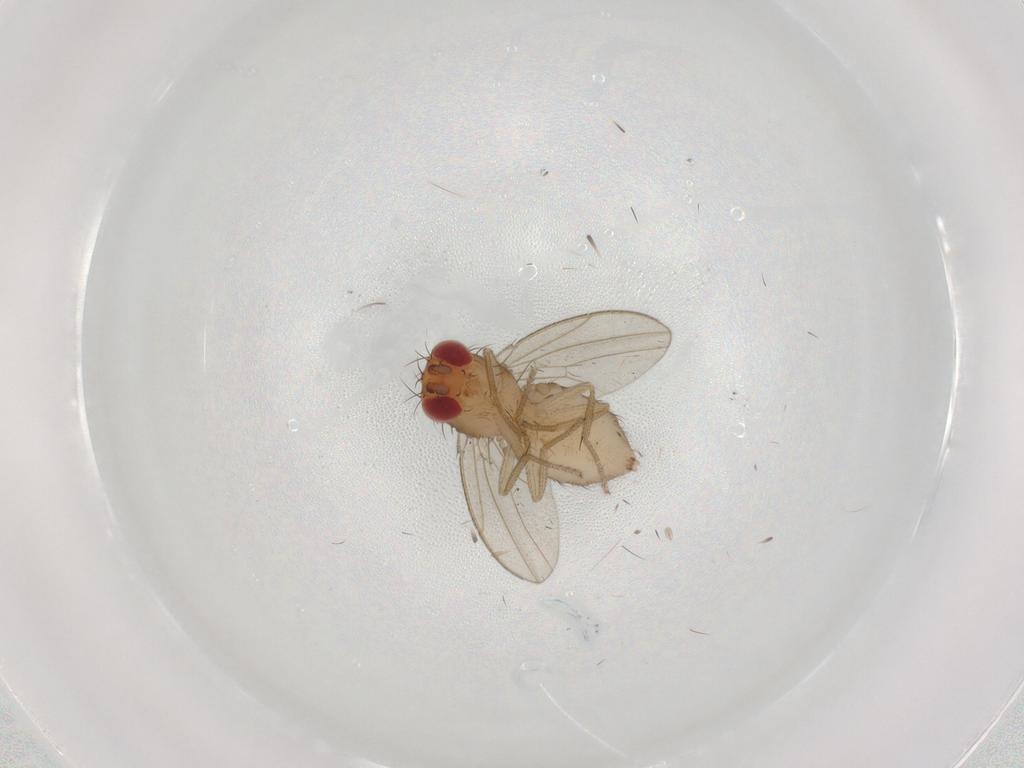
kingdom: Animalia
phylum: Arthropoda
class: Insecta
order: Diptera
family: Drosophilidae
